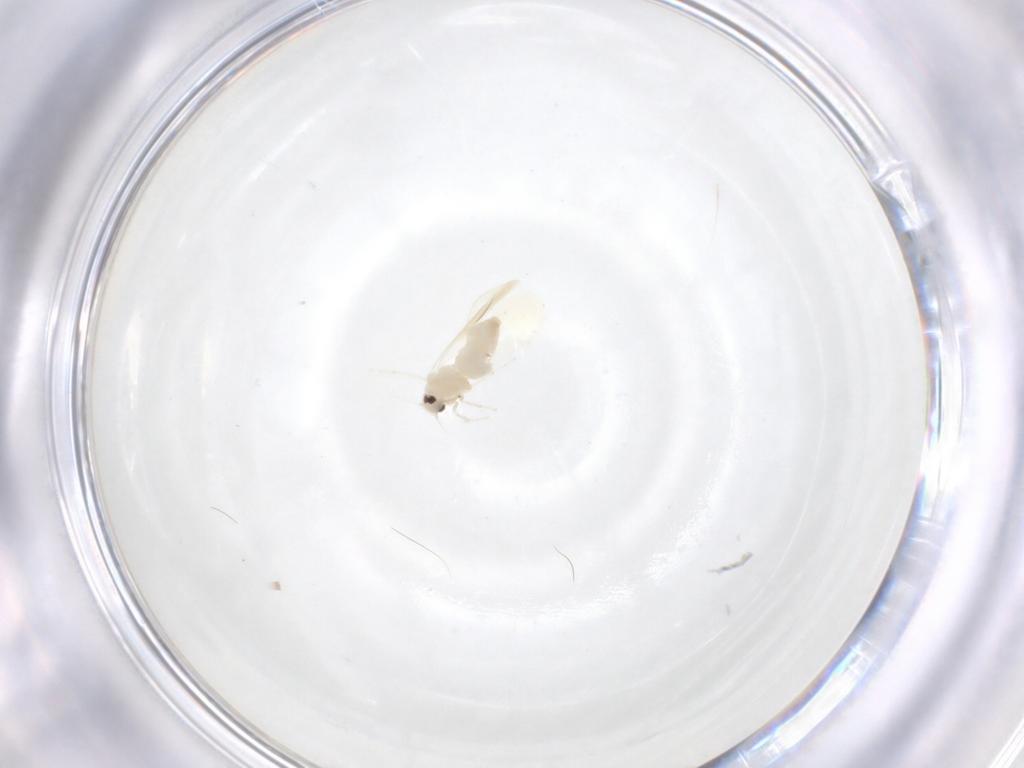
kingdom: Animalia
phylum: Arthropoda
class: Insecta
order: Hemiptera
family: Aleyrodidae
